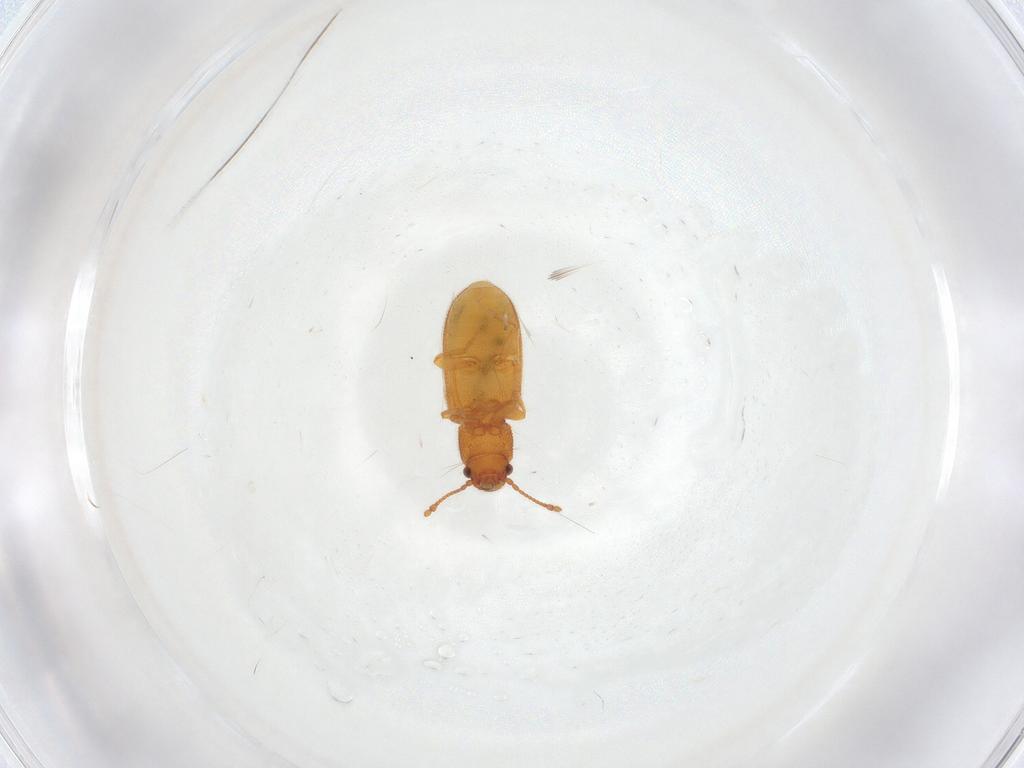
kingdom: Animalia
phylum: Arthropoda
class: Insecta
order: Coleoptera
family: Mycetophagidae
